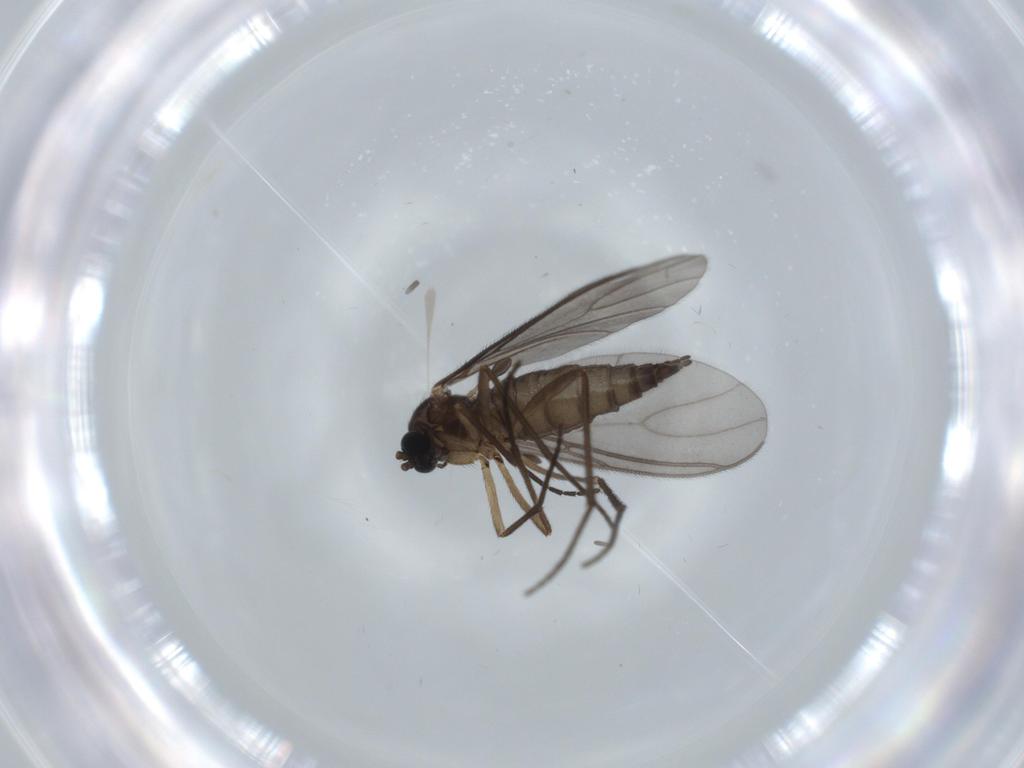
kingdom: Animalia
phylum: Arthropoda
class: Insecta
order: Diptera
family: Sciaridae
